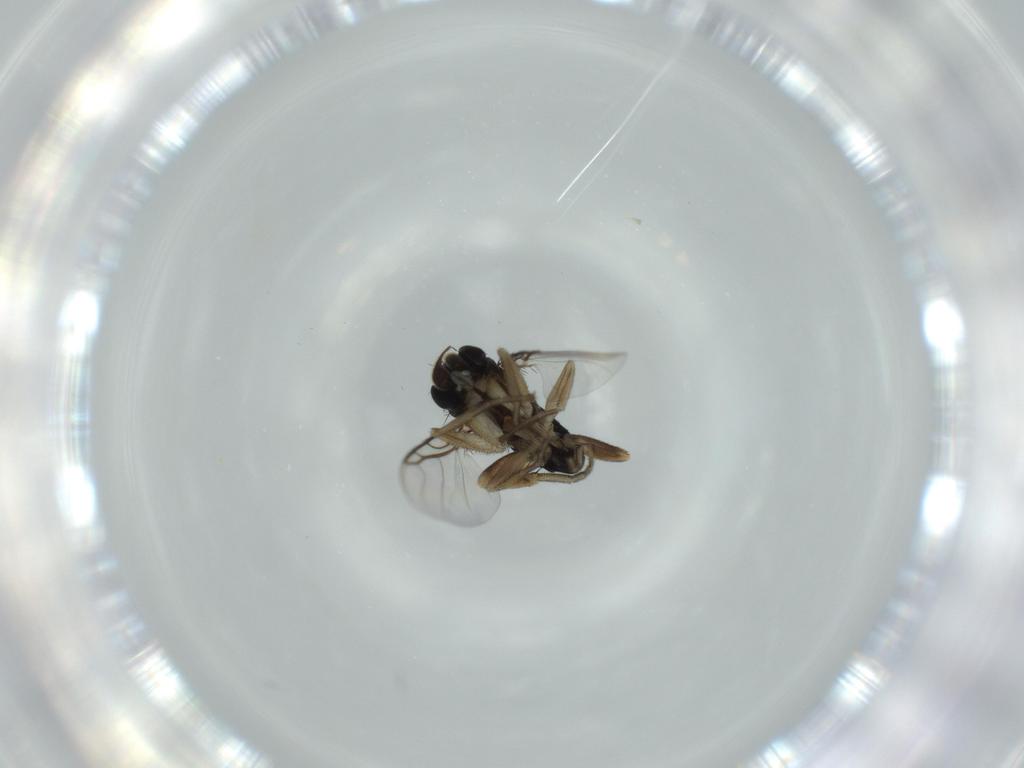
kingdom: Animalia
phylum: Arthropoda
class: Insecta
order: Diptera
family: Phoridae
